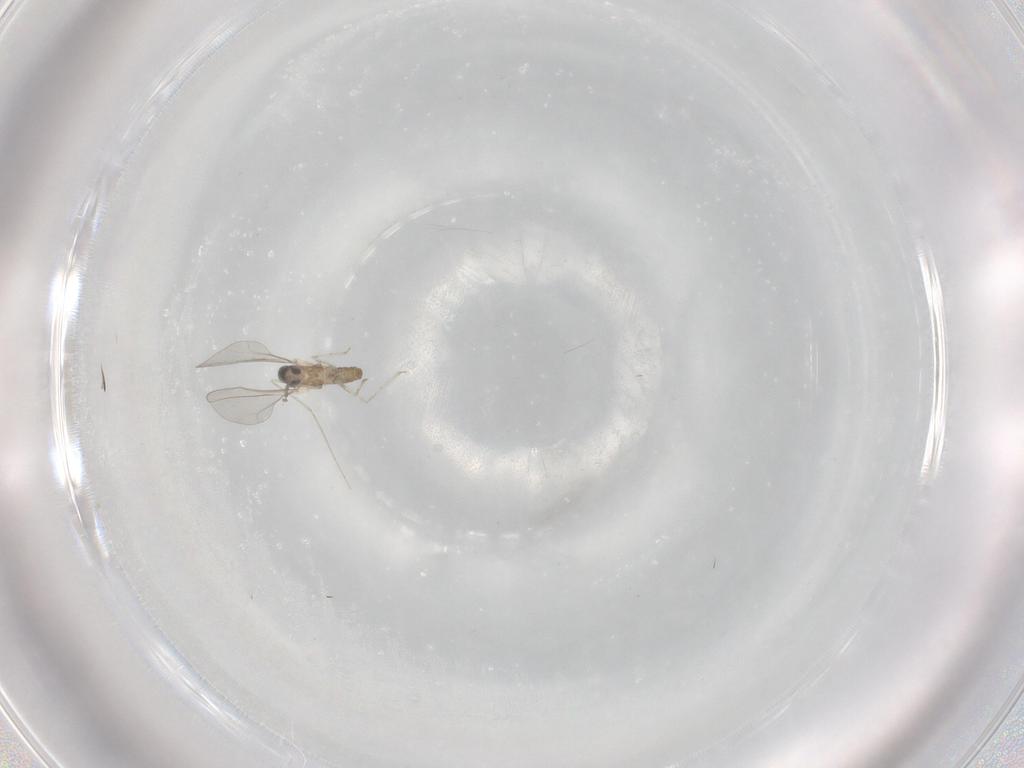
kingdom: Animalia
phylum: Arthropoda
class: Insecta
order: Diptera
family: Cecidomyiidae
